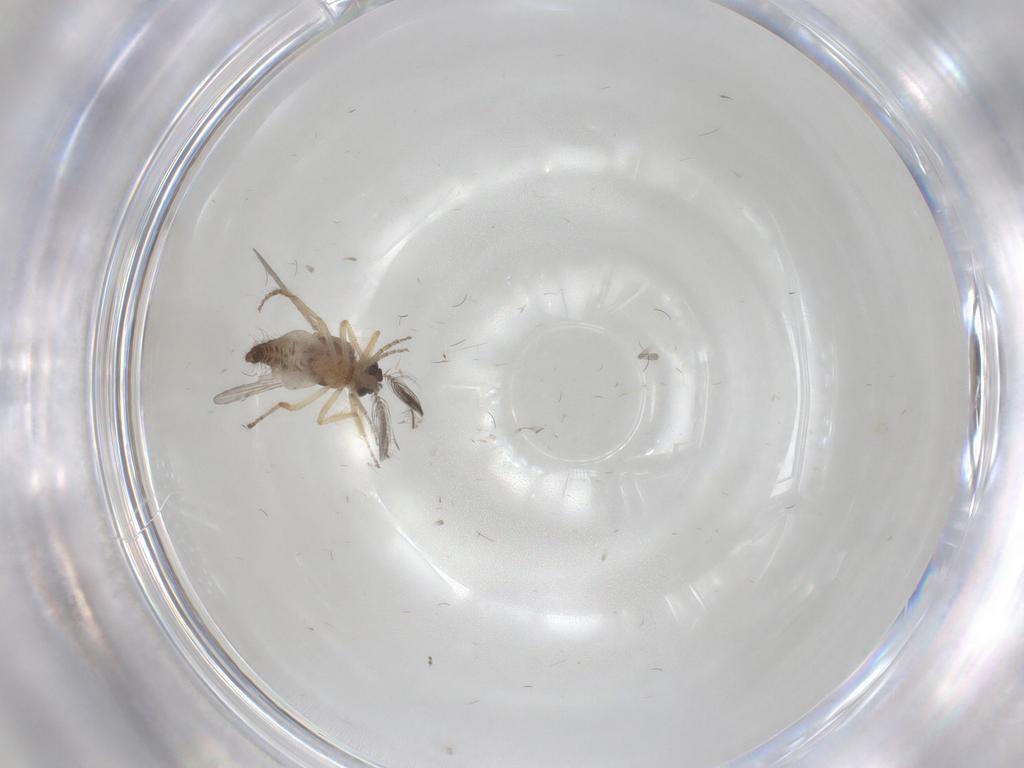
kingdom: Animalia
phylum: Arthropoda
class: Insecta
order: Diptera
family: Ceratopogonidae
